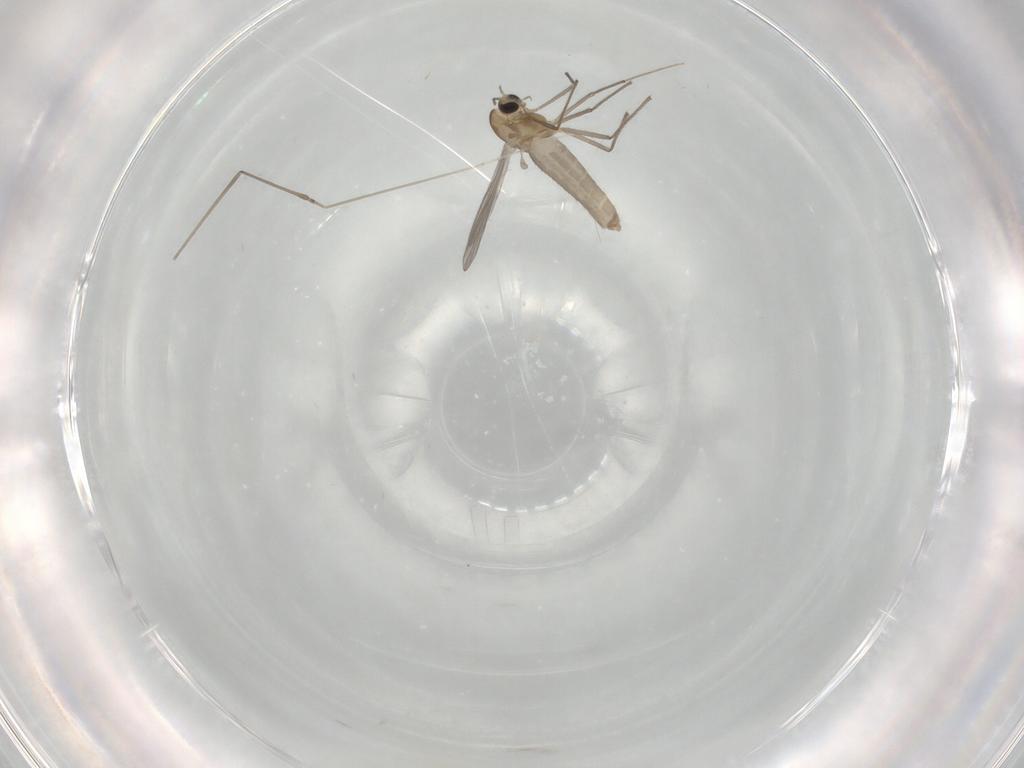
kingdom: Animalia
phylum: Arthropoda
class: Insecta
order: Diptera
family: Cecidomyiidae
